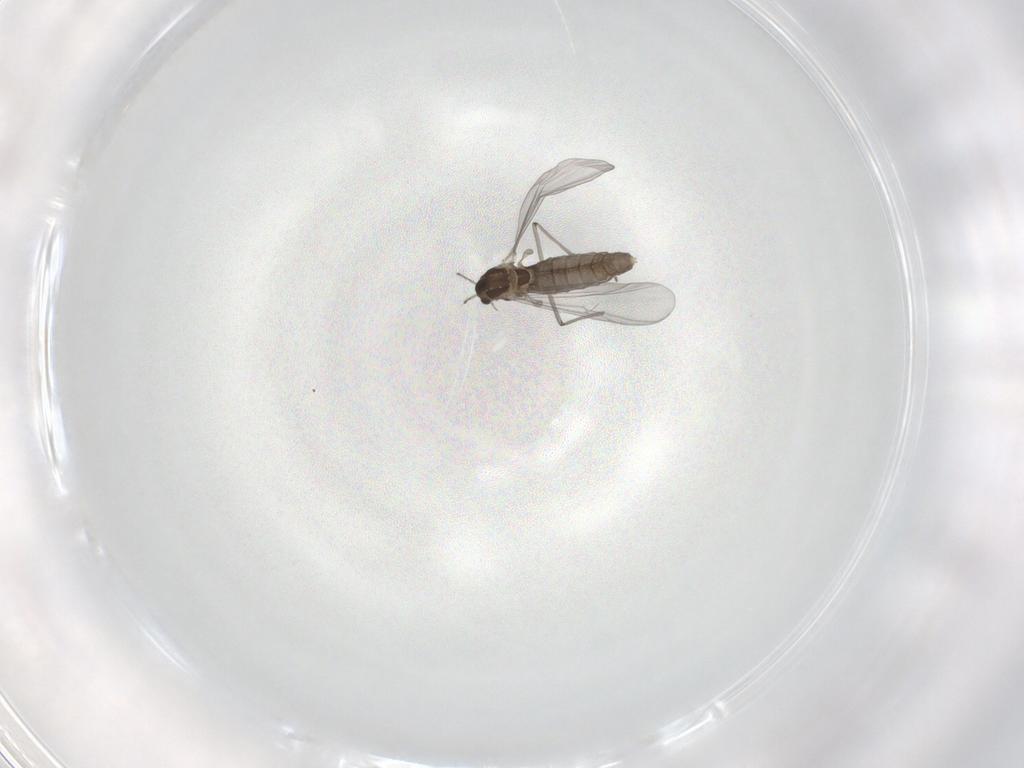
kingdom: Animalia
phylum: Arthropoda
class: Insecta
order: Diptera
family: Chironomidae
